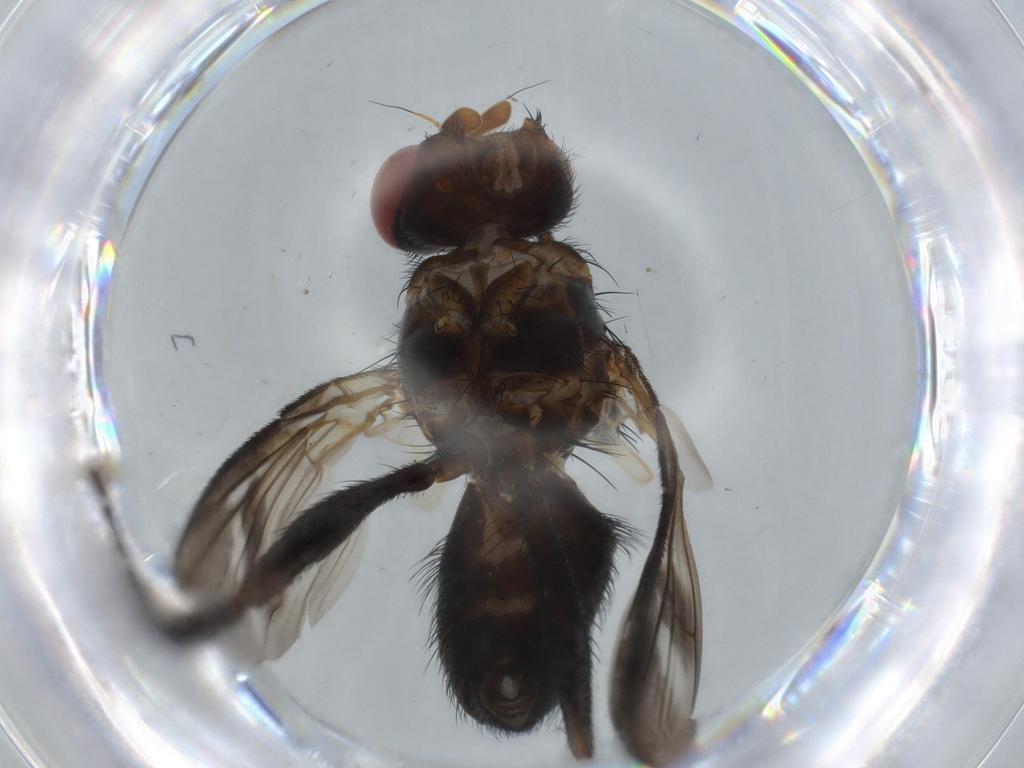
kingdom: Animalia
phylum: Arthropoda
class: Insecta
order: Diptera
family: Calliphoridae
